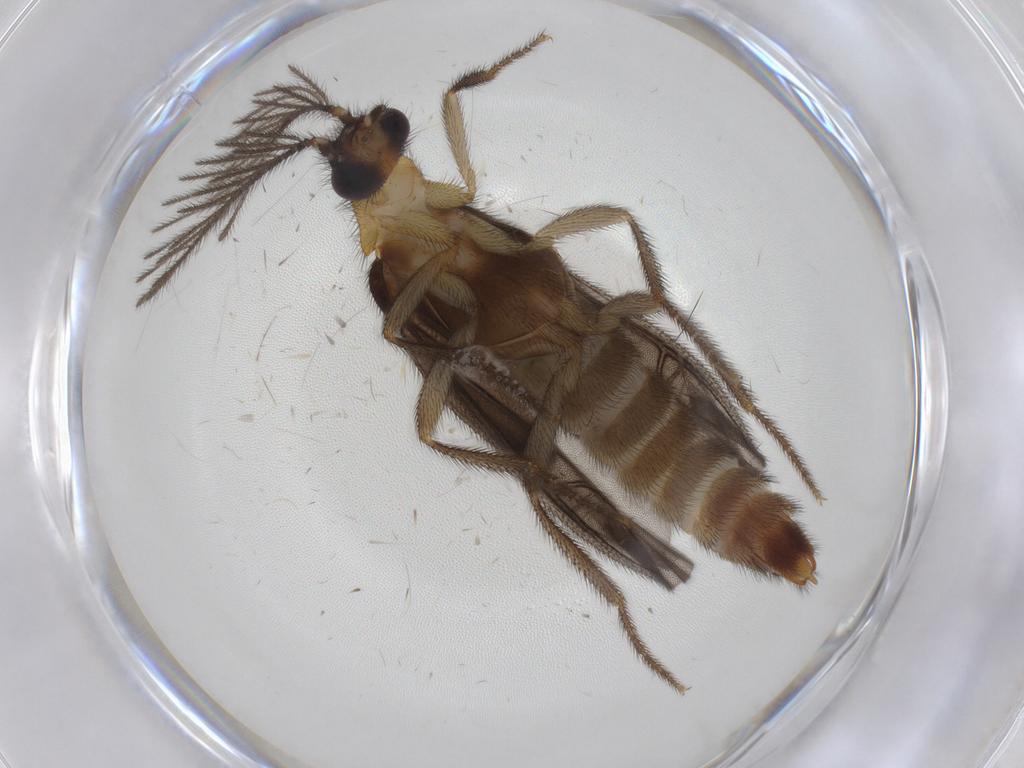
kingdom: Animalia
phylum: Arthropoda
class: Insecta
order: Coleoptera
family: Phengodidae
